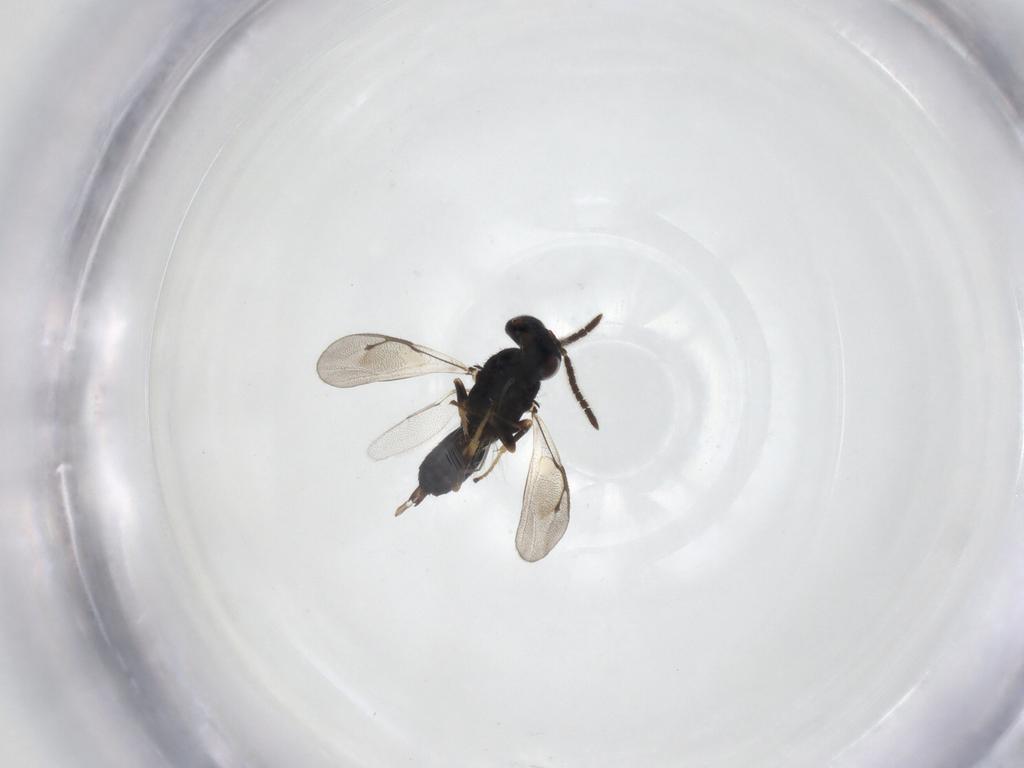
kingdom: Animalia
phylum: Arthropoda
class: Insecta
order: Hymenoptera
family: Pteromalidae
